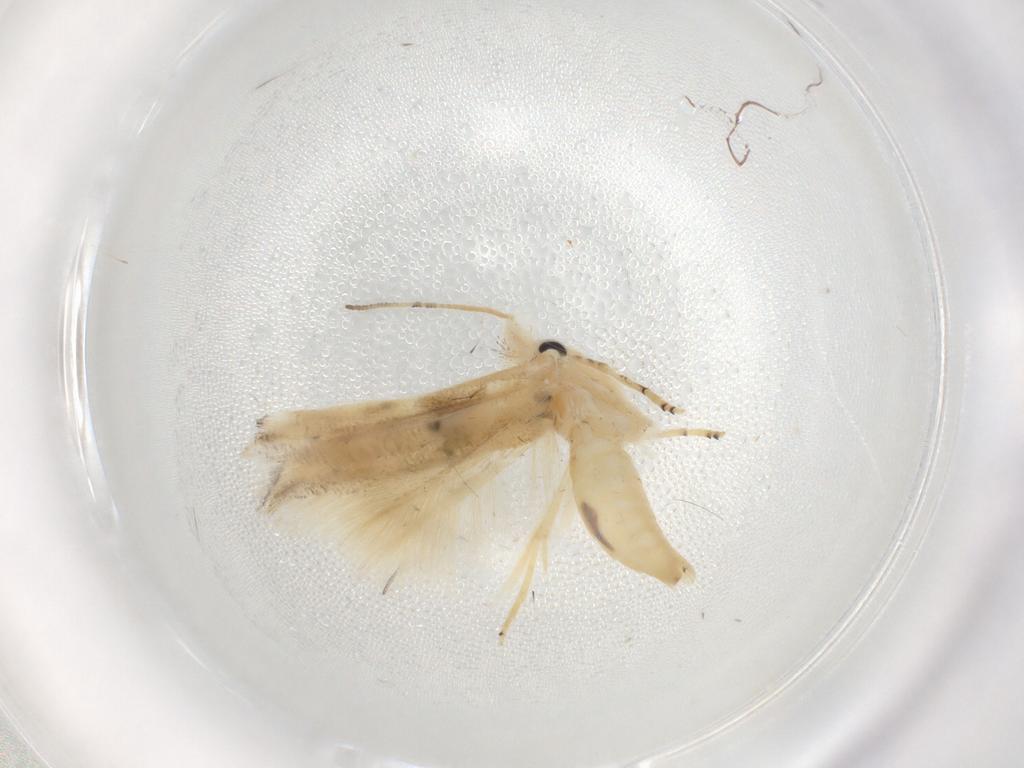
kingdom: Animalia
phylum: Arthropoda
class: Insecta
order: Lepidoptera
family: Bucculatricidae
